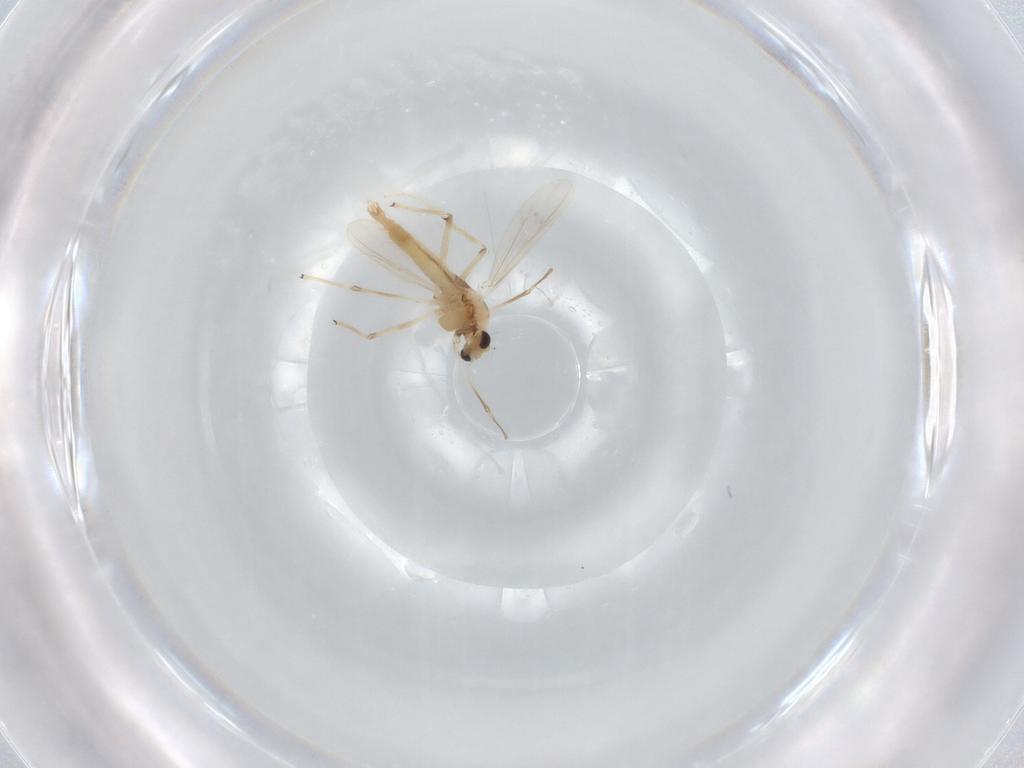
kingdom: Animalia
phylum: Arthropoda
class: Insecta
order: Diptera
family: Chironomidae
